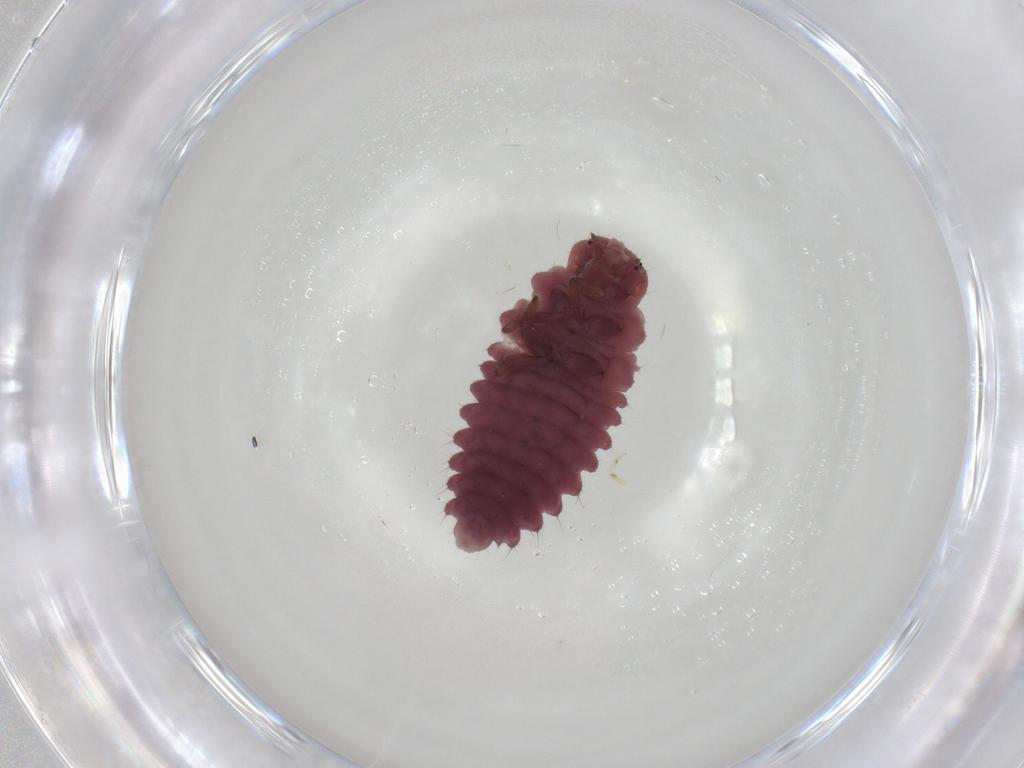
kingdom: Animalia
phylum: Arthropoda
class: Insecta
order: Coleoptera
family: Coccinellidae
